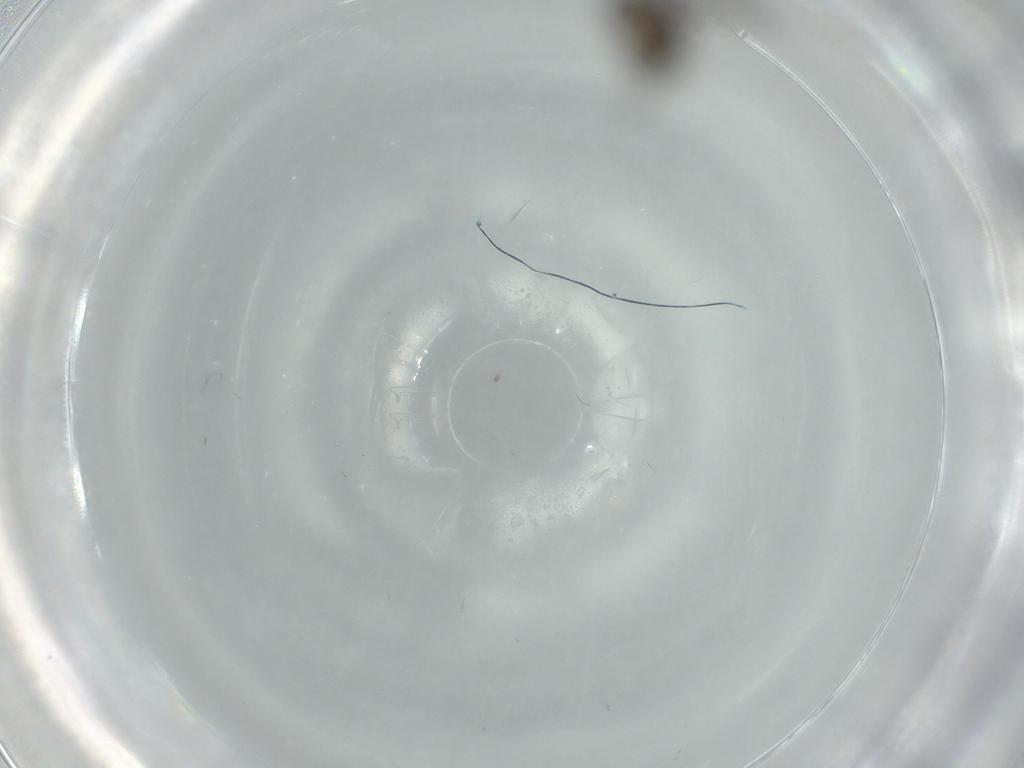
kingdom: Animalia
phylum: Arthropoda
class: Insecta
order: Diptera
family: Psychodidae
